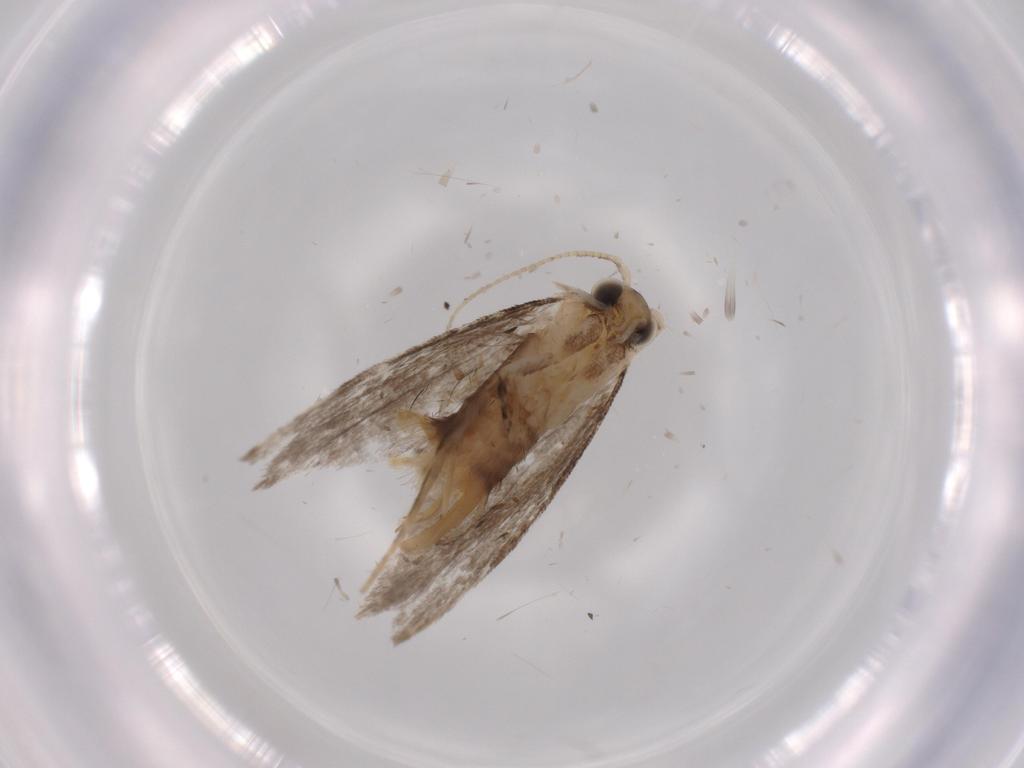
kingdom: Animalia
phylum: Arthropoda
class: Insecta
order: Lepidoptera
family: Tineidae
